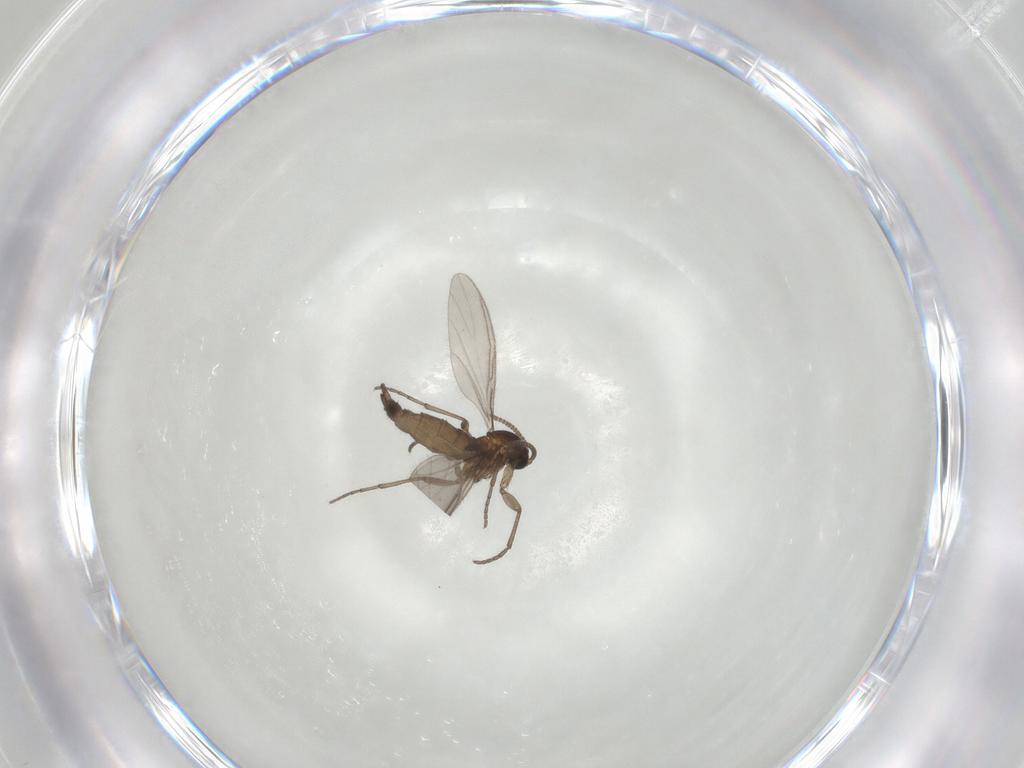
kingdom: Animalia
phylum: Arthropoda
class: Insecta
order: Diptera
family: Sciaridae
